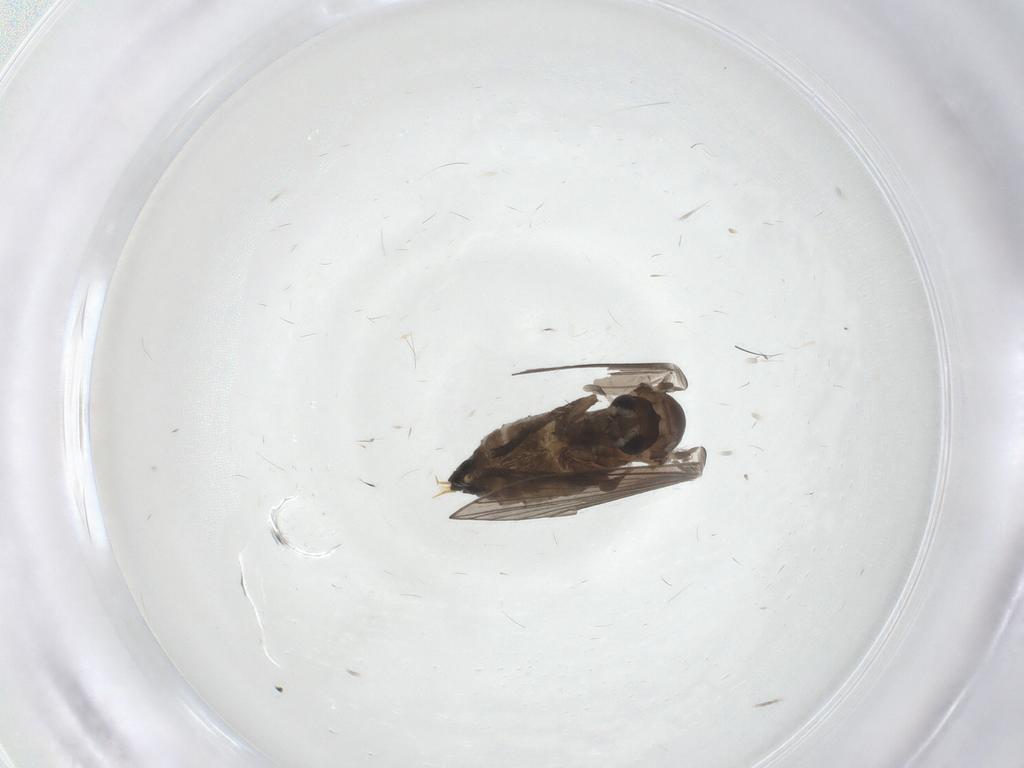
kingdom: Animalia
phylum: Arthropoda
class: Insecta
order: Diptera
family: Psychodidae
